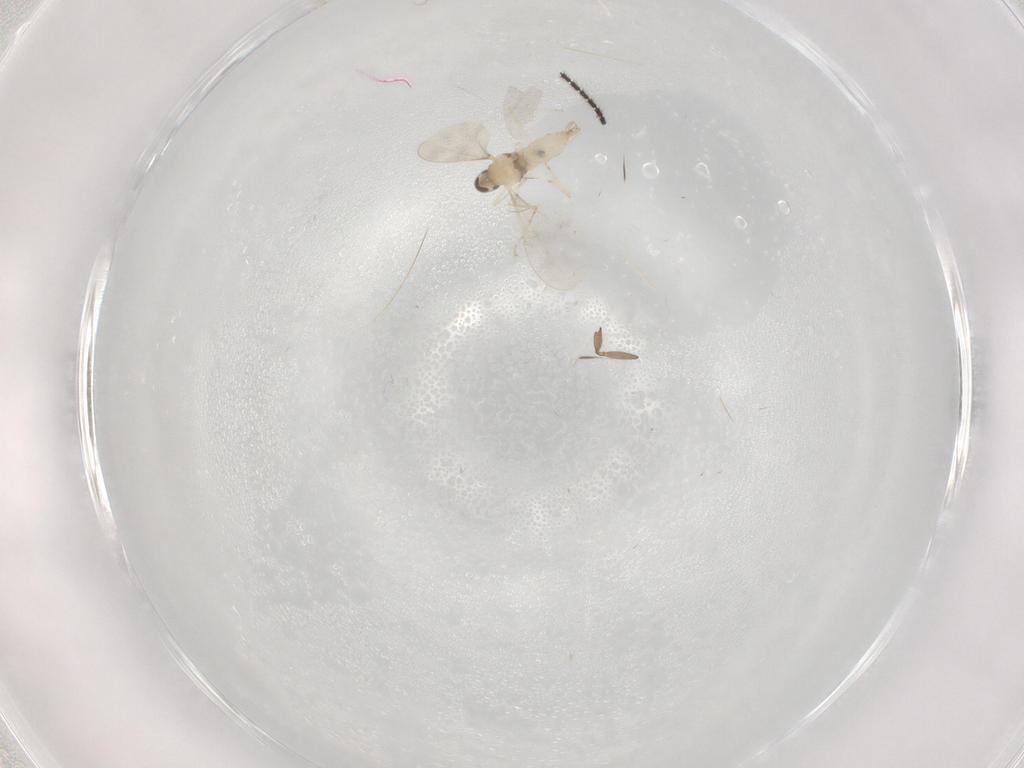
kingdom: Animalia
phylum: Arthropoda
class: Insecta
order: Diptera
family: Sciaridae
